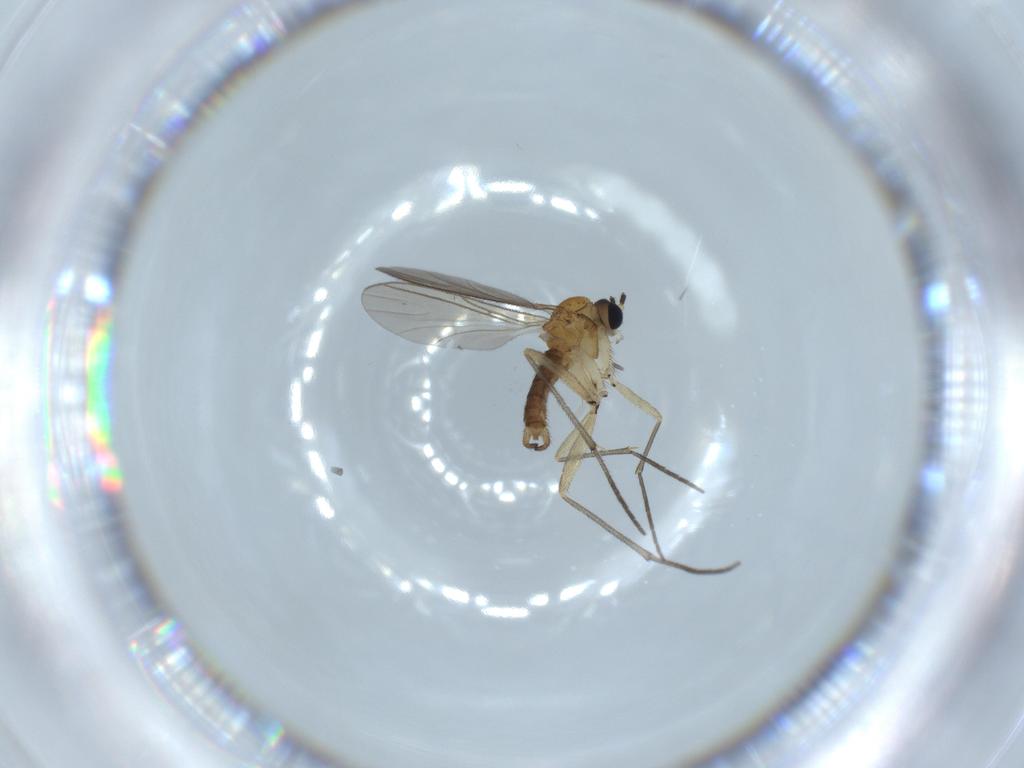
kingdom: Animalia
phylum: Arthropoda
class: Insecta
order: Diptera
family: Sciaridae
